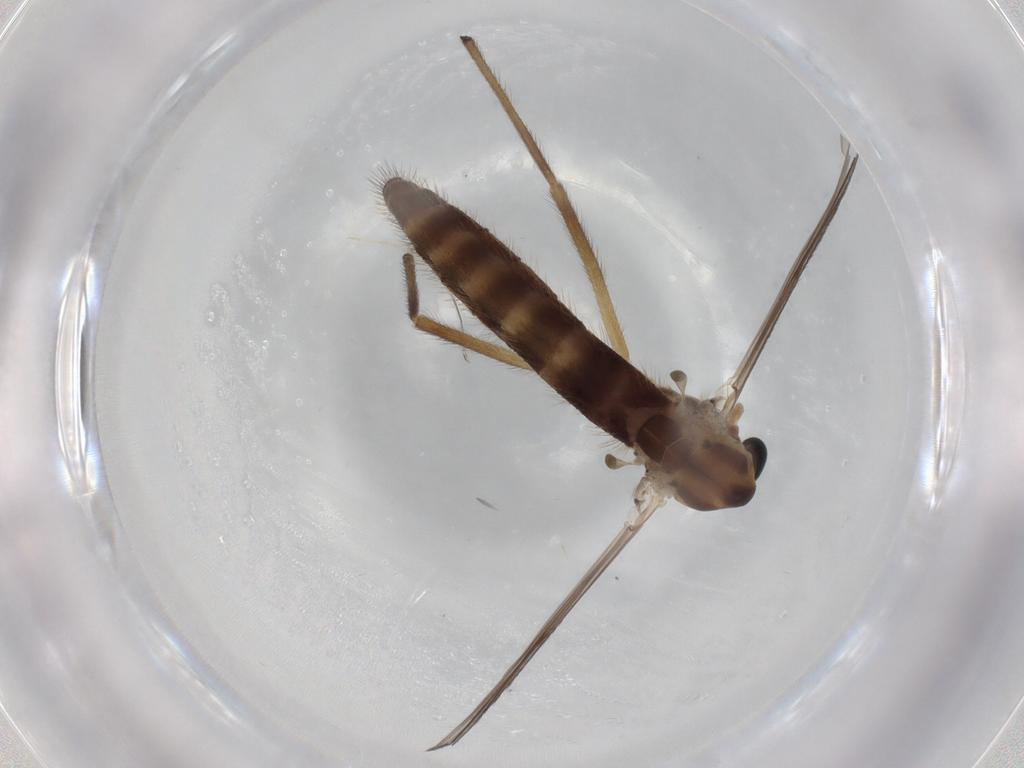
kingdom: Animalia
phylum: Arthropoda
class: Insecta
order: Diptera
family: Chironomidae
